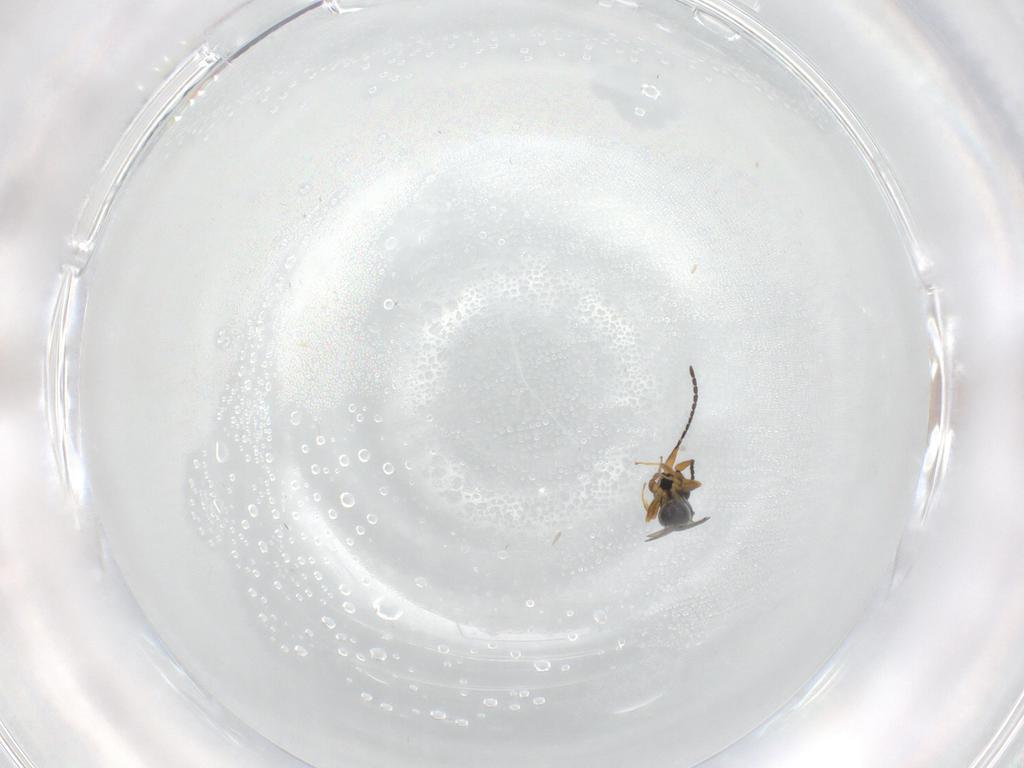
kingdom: Animalia
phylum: Arthropoda
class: Insecta
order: Hymenoptera
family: Ceraphronidae
